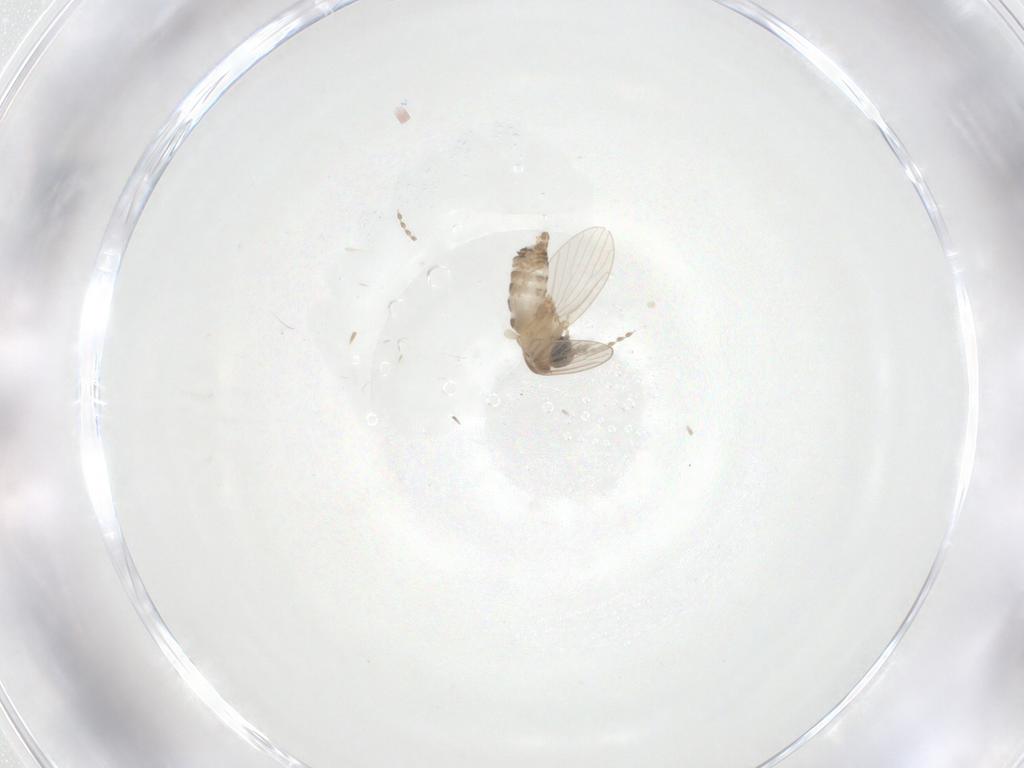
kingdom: Animalia
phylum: Arthropoda
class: Insecta
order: Diptera
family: Psychodidae
